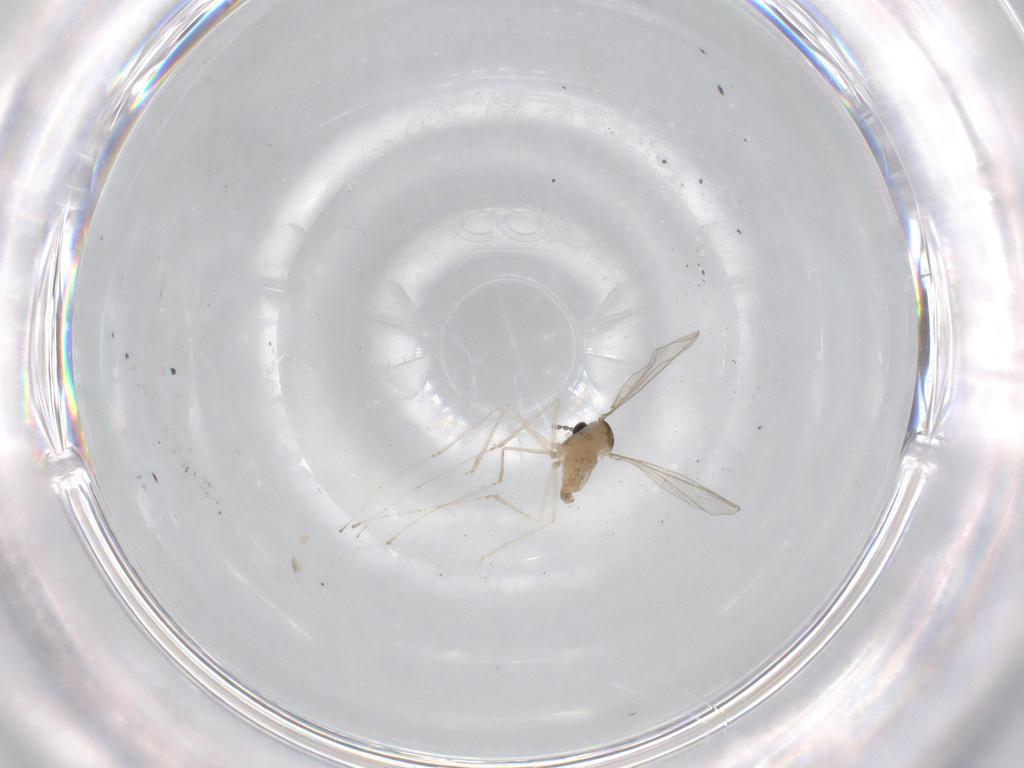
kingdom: Animalia
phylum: Arthropoda
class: Insecta
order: Diptera
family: Cecidomyiidae
